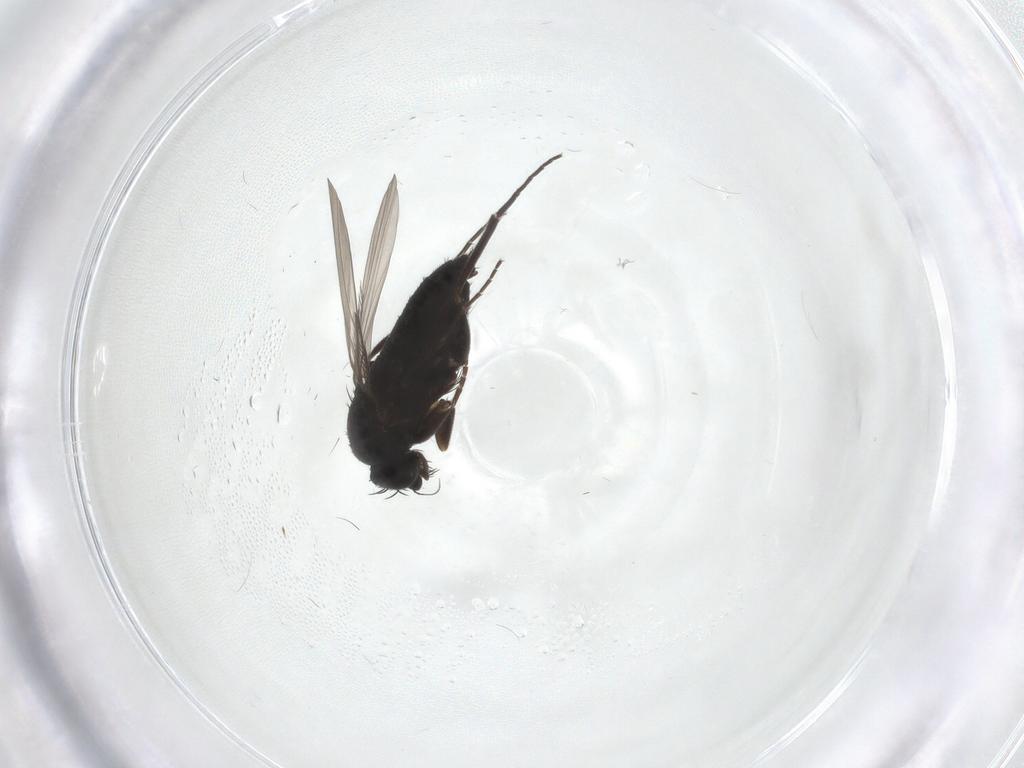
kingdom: Animalia
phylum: Arthropoda
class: Insecta
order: Diptera
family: Phoridae
